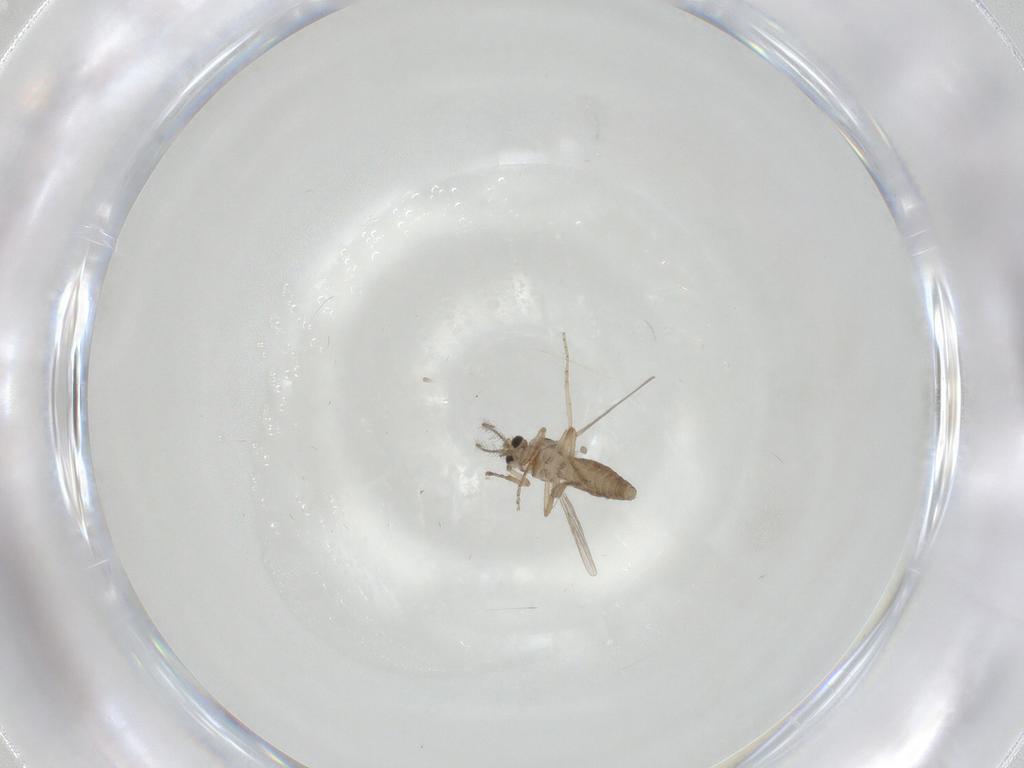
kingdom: Animalia
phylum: Arthropoda
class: Insecta
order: Diptera
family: Ceratopogonidae
